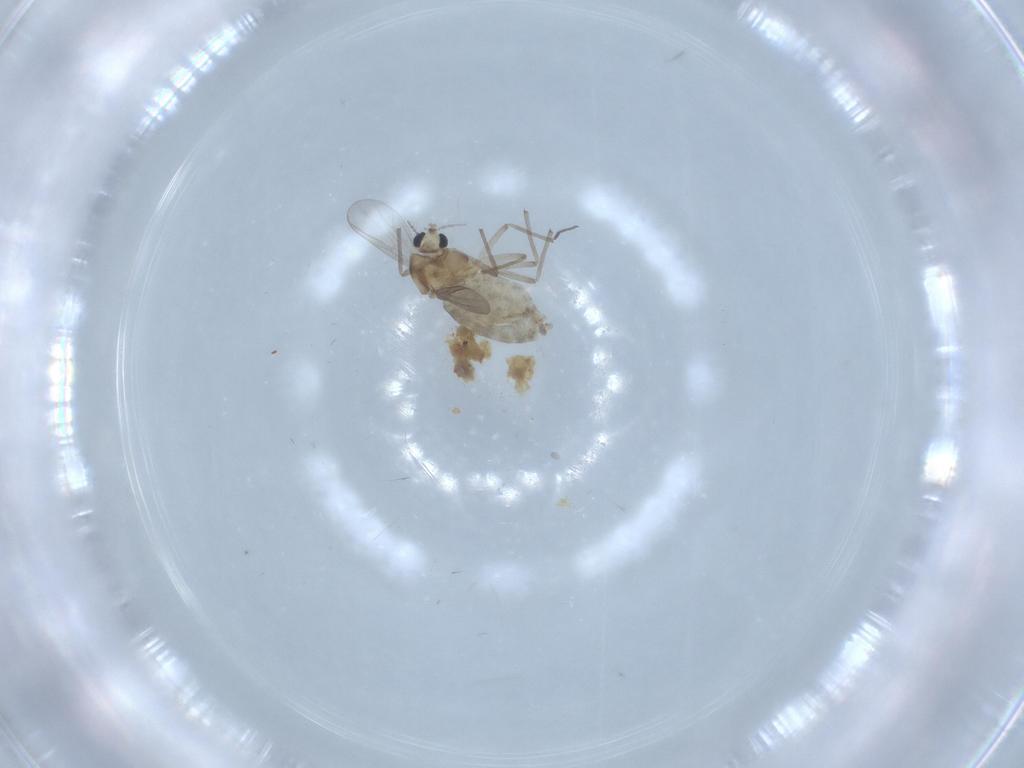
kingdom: Animalia
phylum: Arthropoda
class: Insecta
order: Diptera
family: Chironomidae
